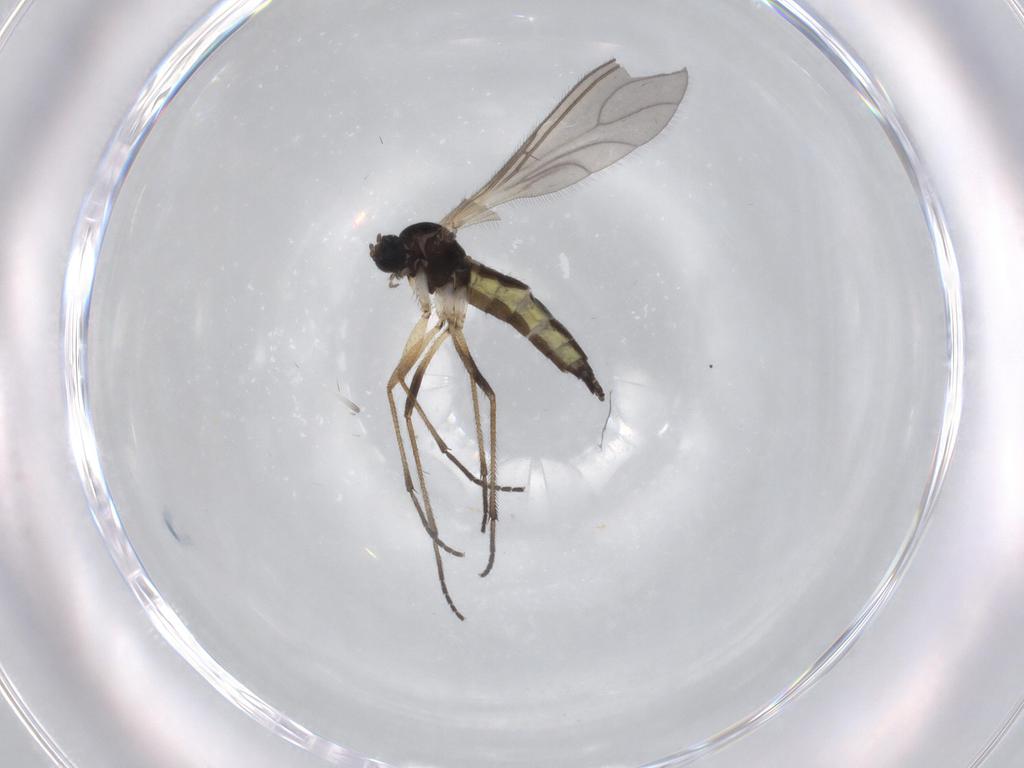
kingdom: Animalia
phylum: Arthropoda
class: Insecta
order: Diptera
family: Sciaridae
